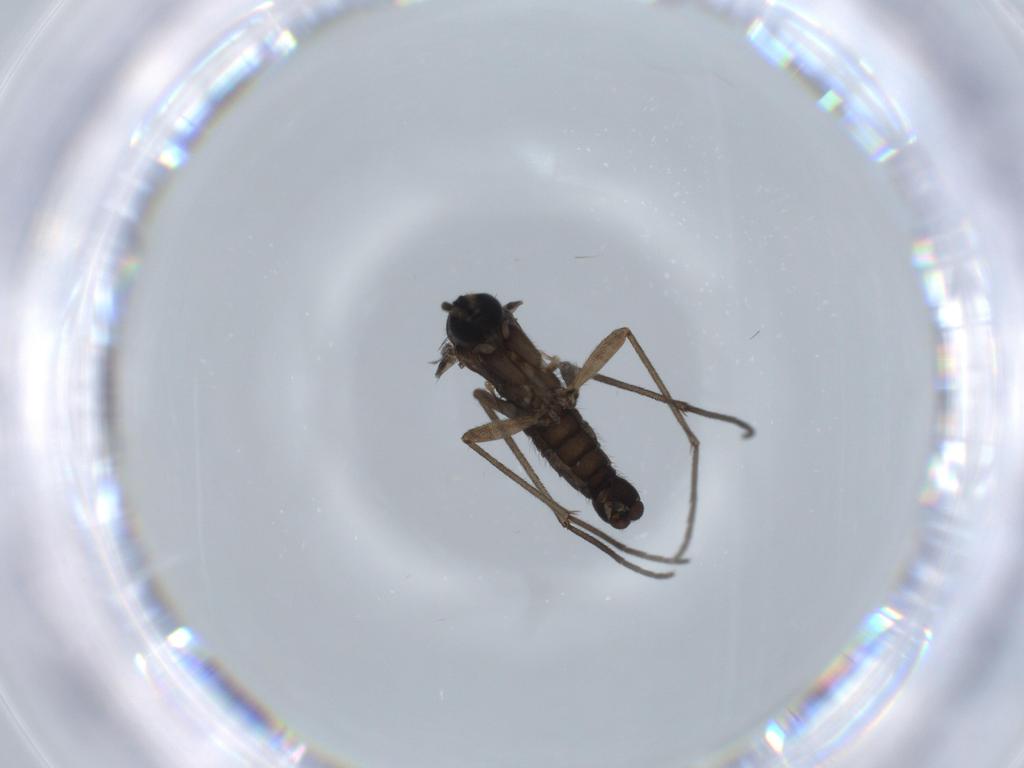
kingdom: Animalia
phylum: Arthropoda
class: Insecta
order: Diptera
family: Sciaridae
